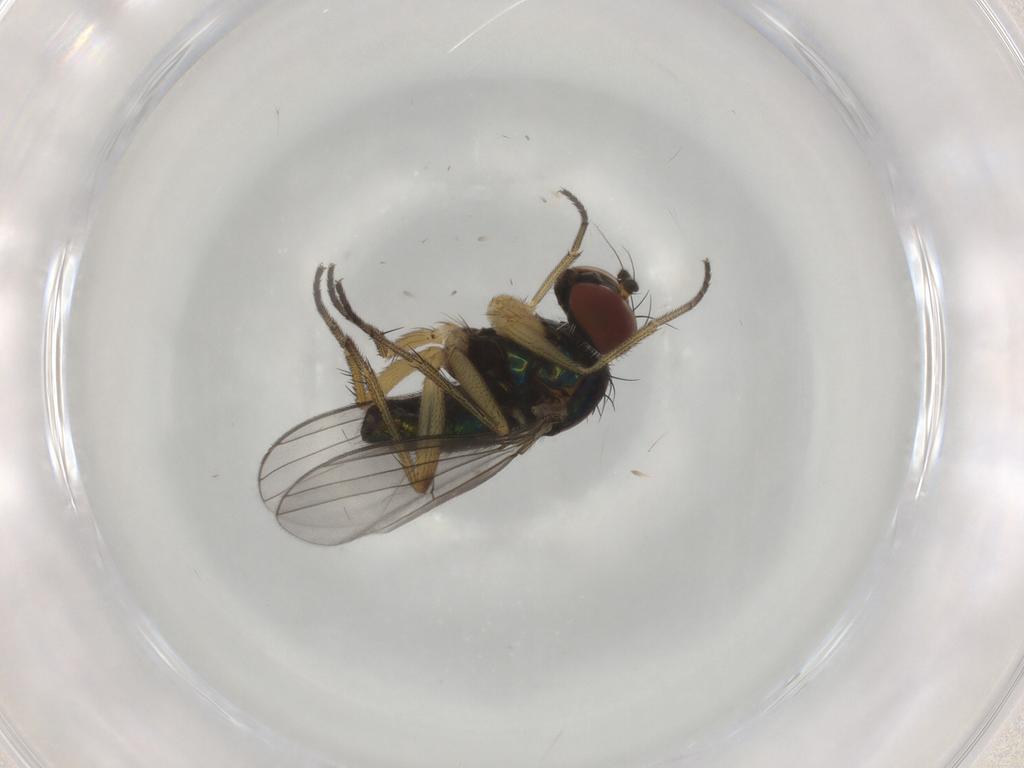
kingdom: Animalia
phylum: Arthropoda
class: Insecta
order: Diptera
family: Dolichopodidae
